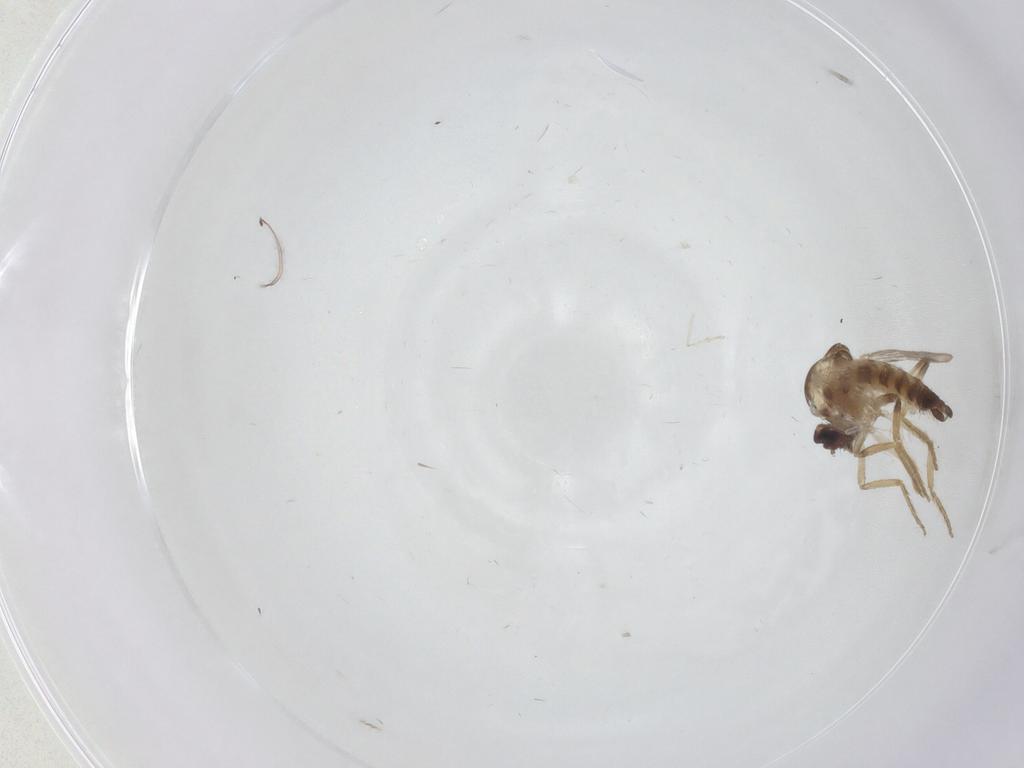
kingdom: Animalia
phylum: Arthropoda
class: Insecta
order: Diptera
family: Ceratopogonidae
